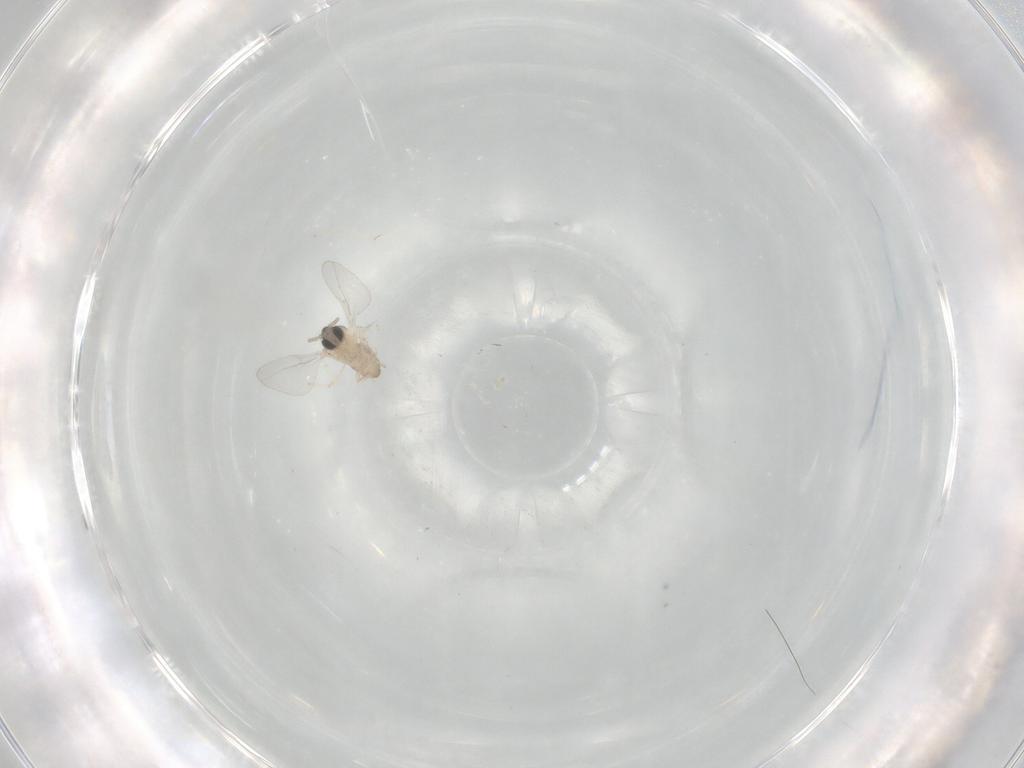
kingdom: Animalia
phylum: Arthropoda
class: Insecta
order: Diptera
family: Cecidomyiidae
